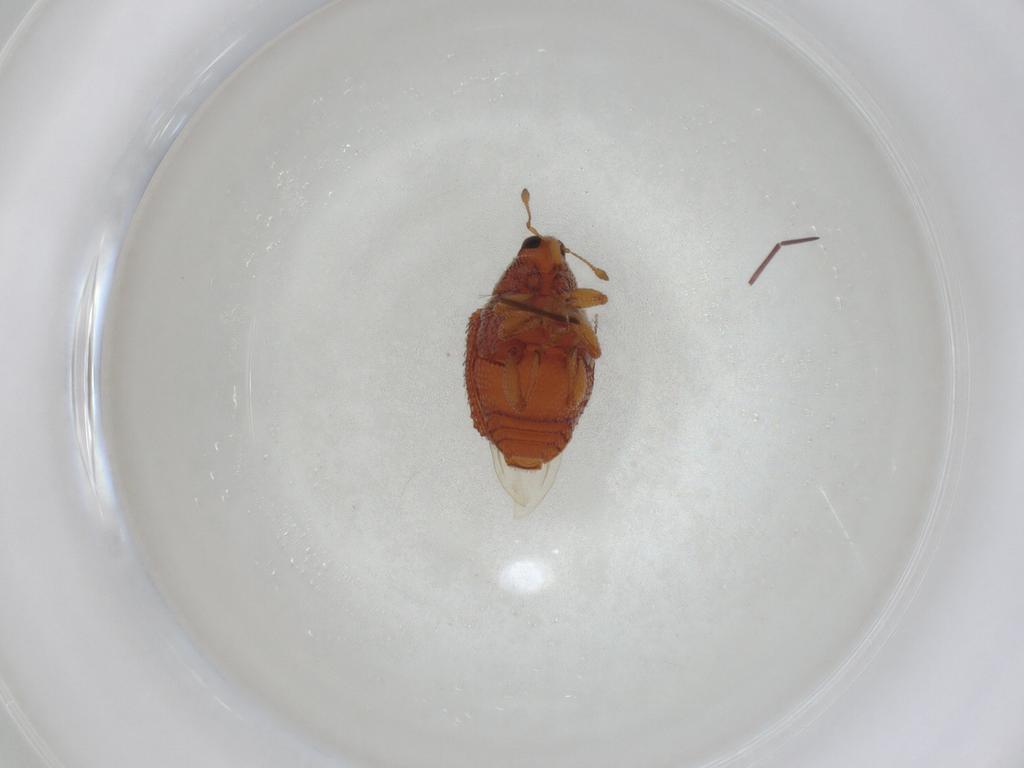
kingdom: Animalia
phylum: Arthropoda
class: Insecta
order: Coleoptera
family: Curculionidae
